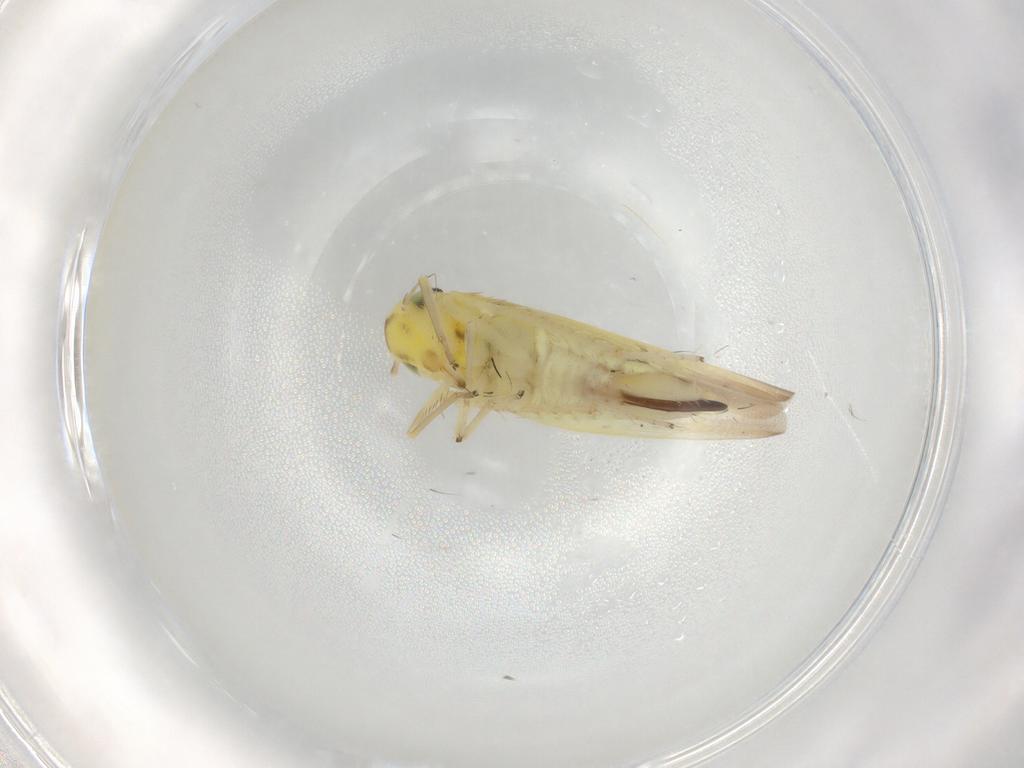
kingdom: Animalia
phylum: Arthropoda
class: Insecta
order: Hemiptera
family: Cicadellidae
